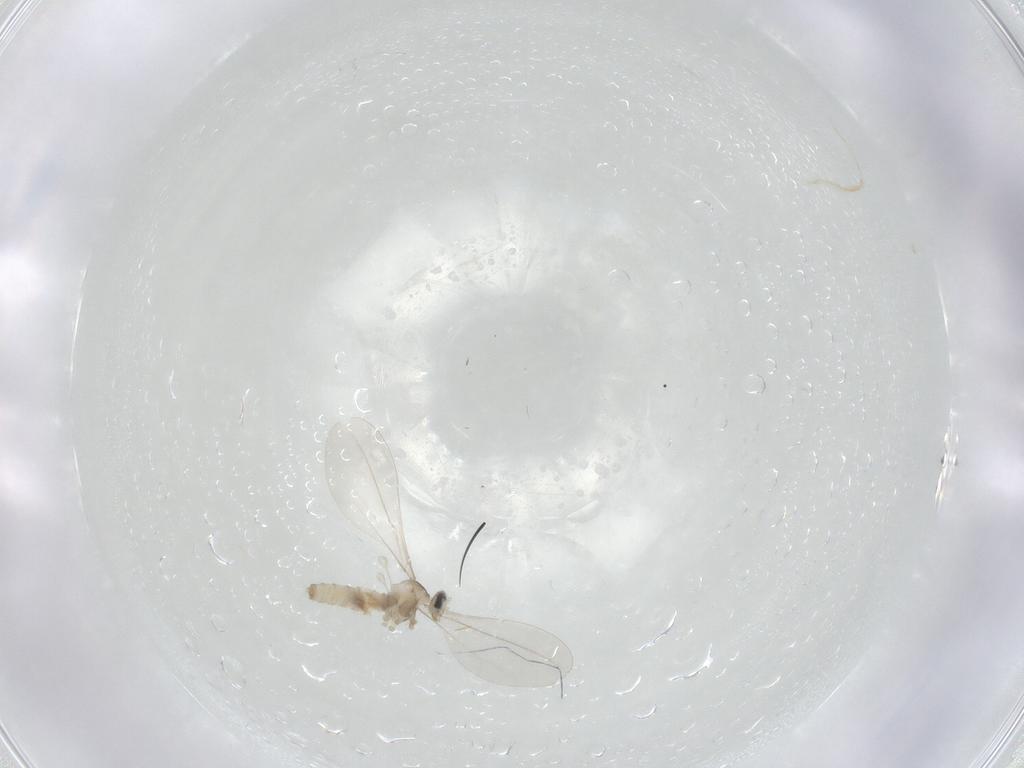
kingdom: Animalia
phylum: Arthropoda
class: Insecta
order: Diptera
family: Cecidomyiidae
